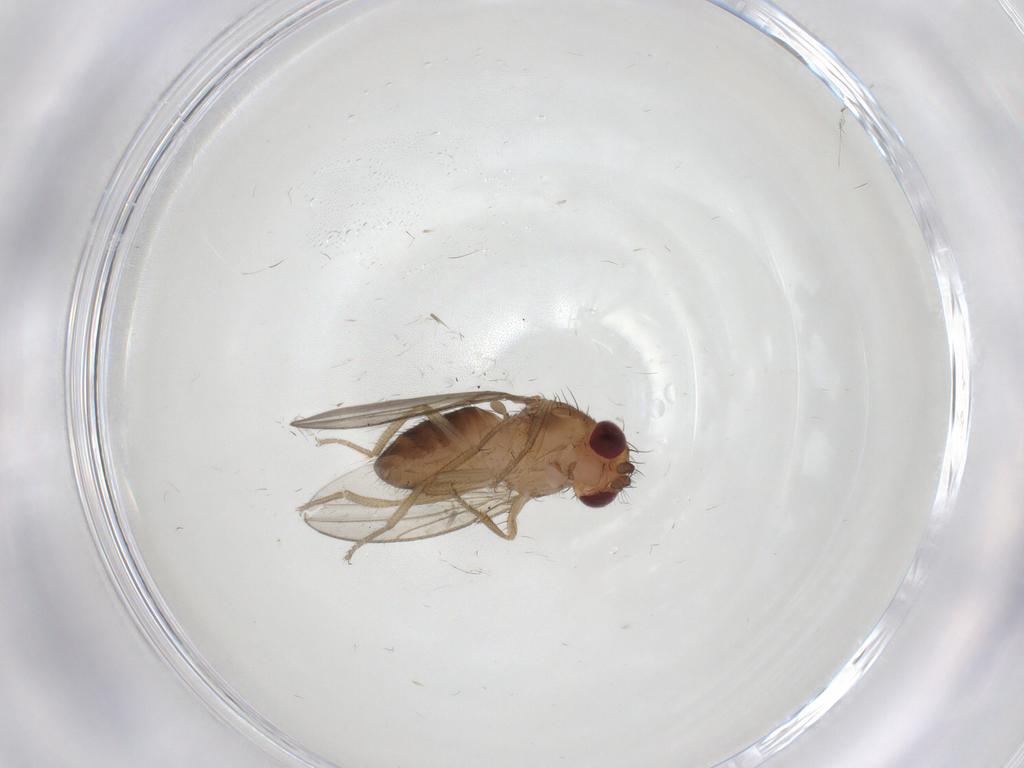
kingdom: Animalia
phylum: Arthropoda
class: Insecta
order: Diptera
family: Drosophilidae
